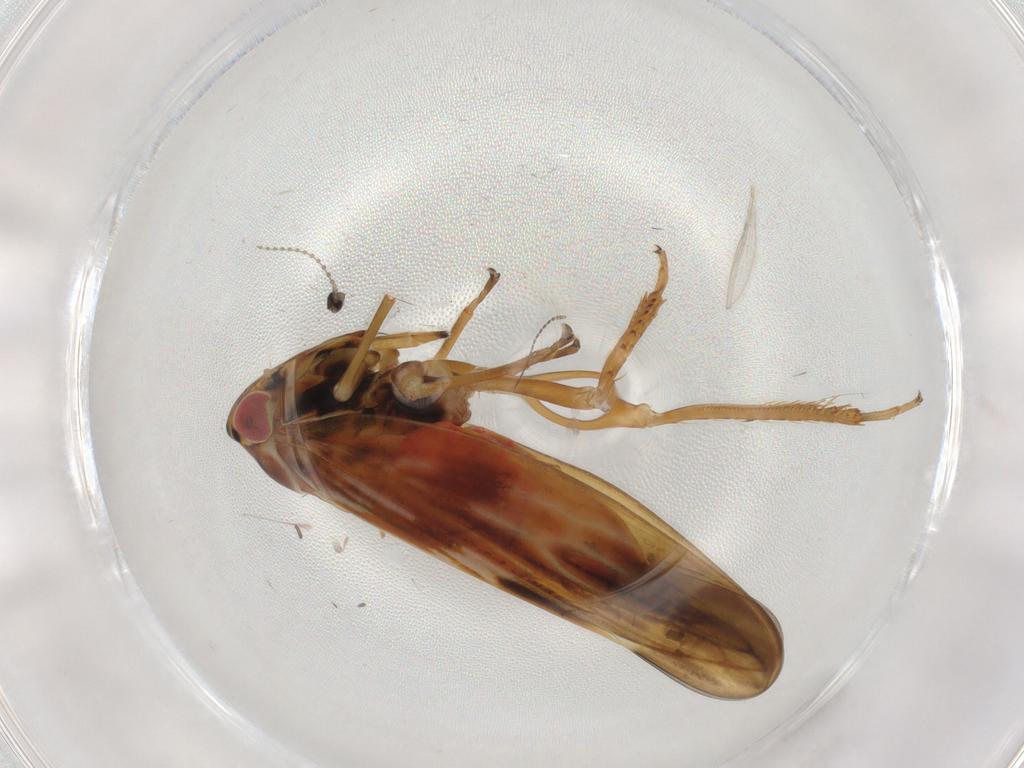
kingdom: Animalia
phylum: Arthropoda
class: Insecta
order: Hemiptera
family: Cicadellidae
